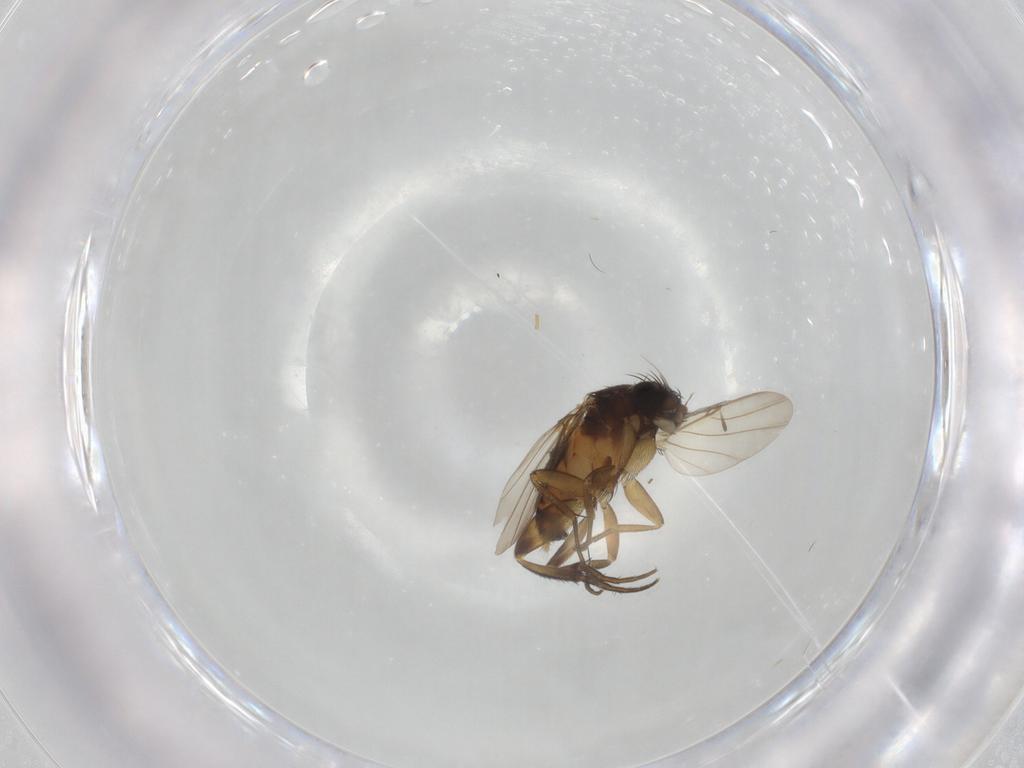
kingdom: Animalia
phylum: Arthropoda
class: Insecta
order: Diptera
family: Phoridae
